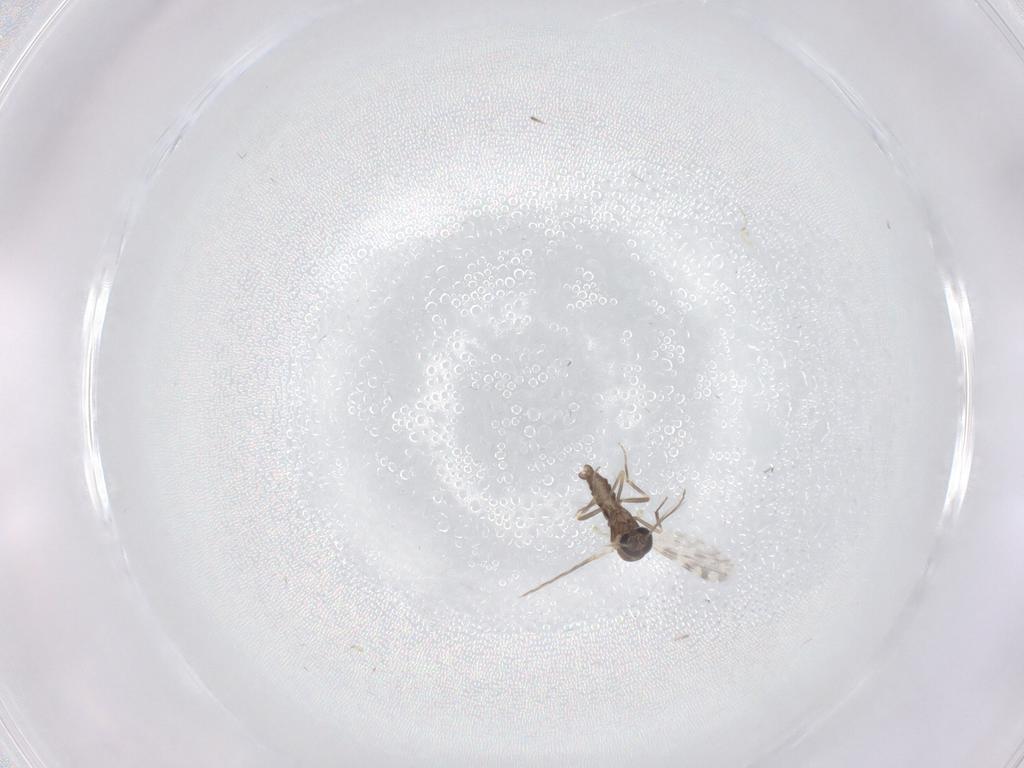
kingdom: Animalia
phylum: Arthropoda
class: Insecta
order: Diptera
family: Ceratopogonidae
